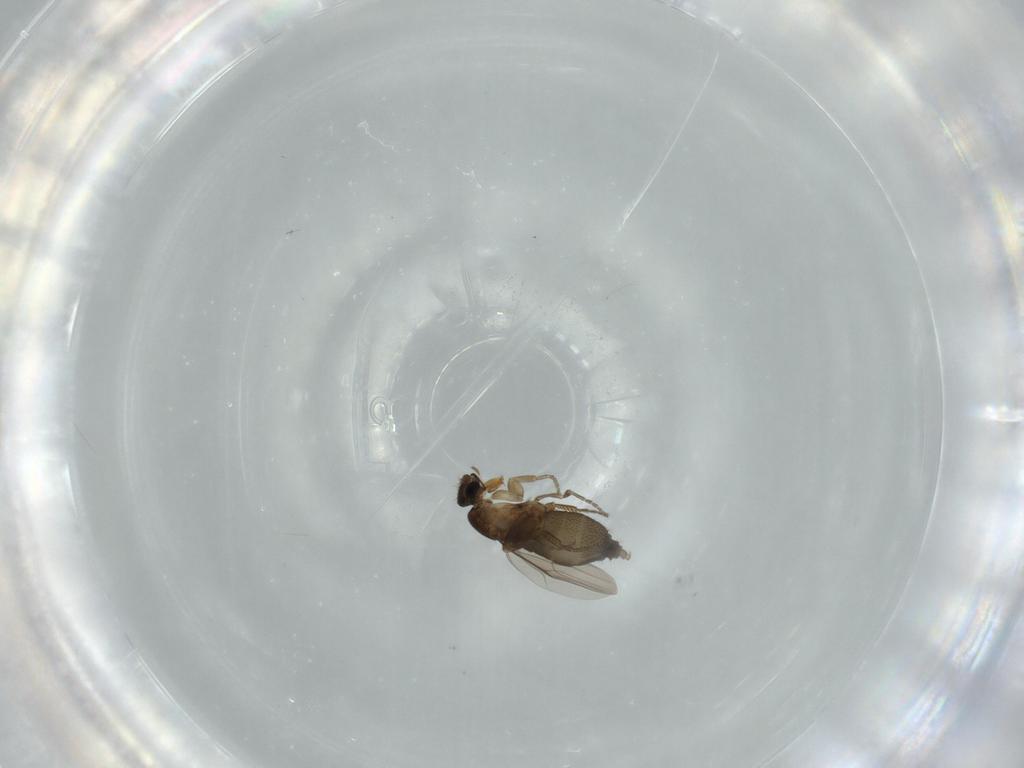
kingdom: Animalia
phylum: Arthropoda
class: Insecta
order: Diptera
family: Phoridae
